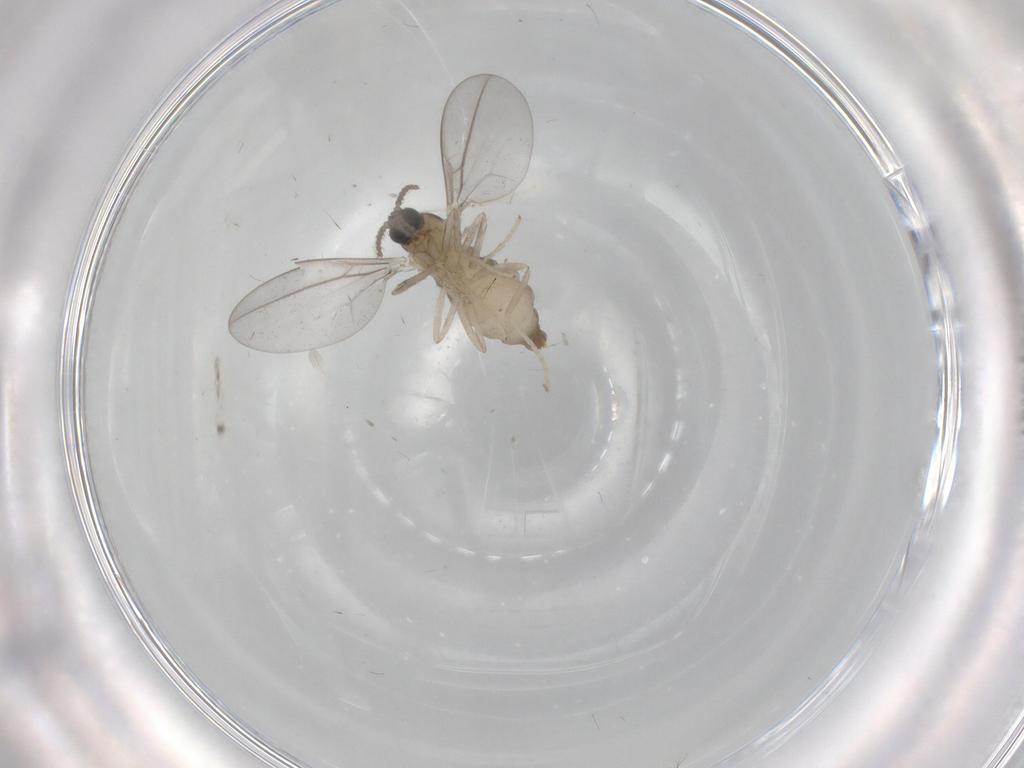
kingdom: Animalia
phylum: Arthropoda
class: Insecta
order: Diptera
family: Cecidomyiidae
